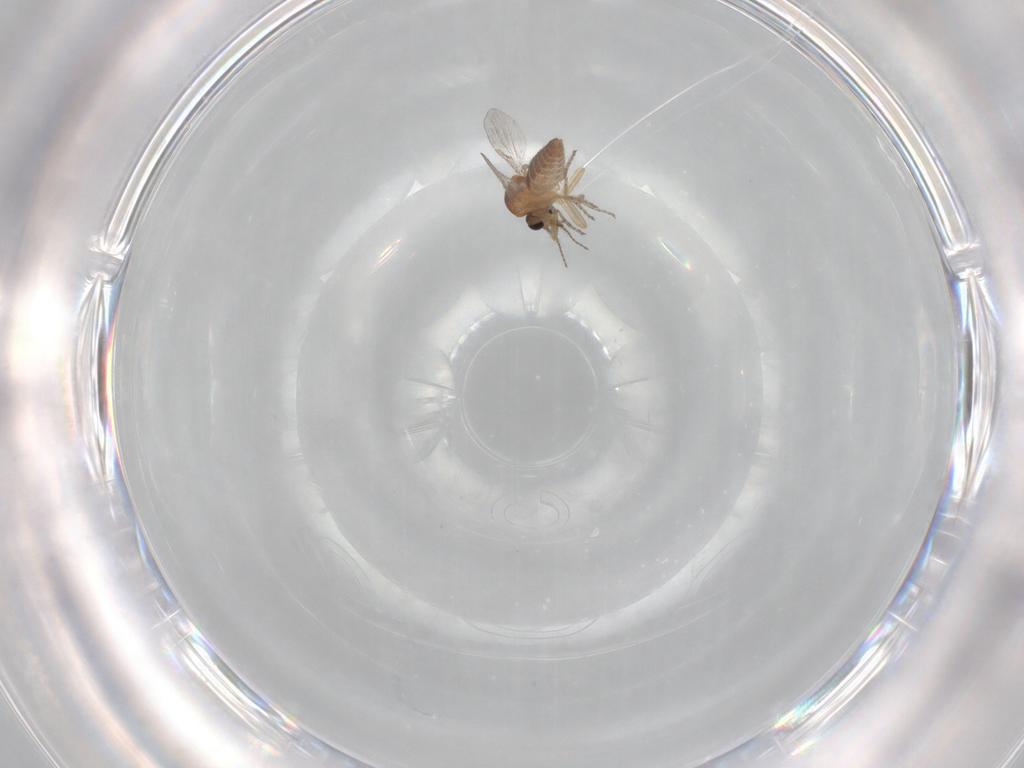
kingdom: Animalia
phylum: Arthropoda
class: Insecta
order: Diptera
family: Ceratopogonidae
